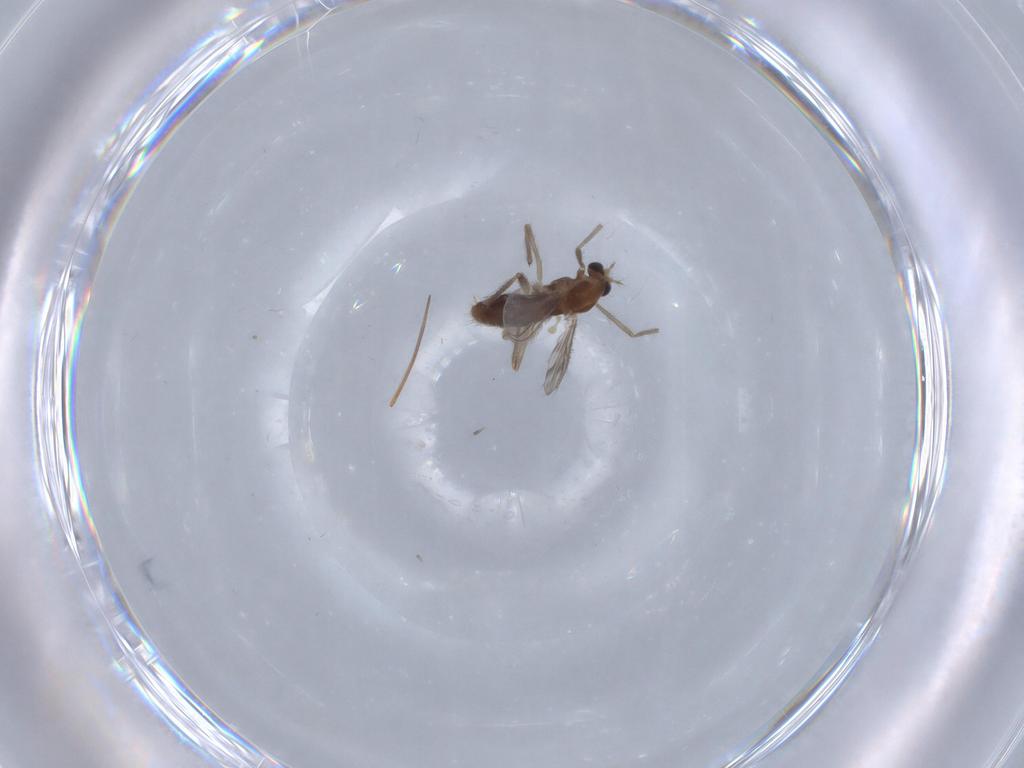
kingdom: Animalia
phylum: Arthropoda
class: Insecta
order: Diptera
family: Chironomidae
